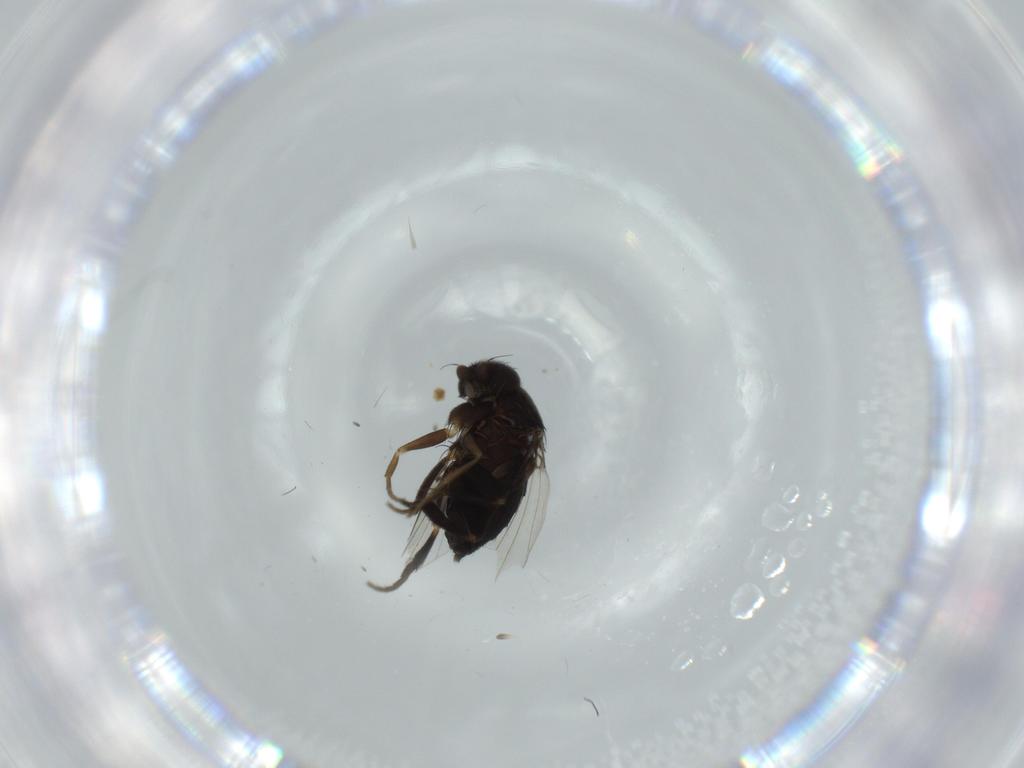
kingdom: Animalia
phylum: Arthropoda
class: Insecta
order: Diptera
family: Phoridae
